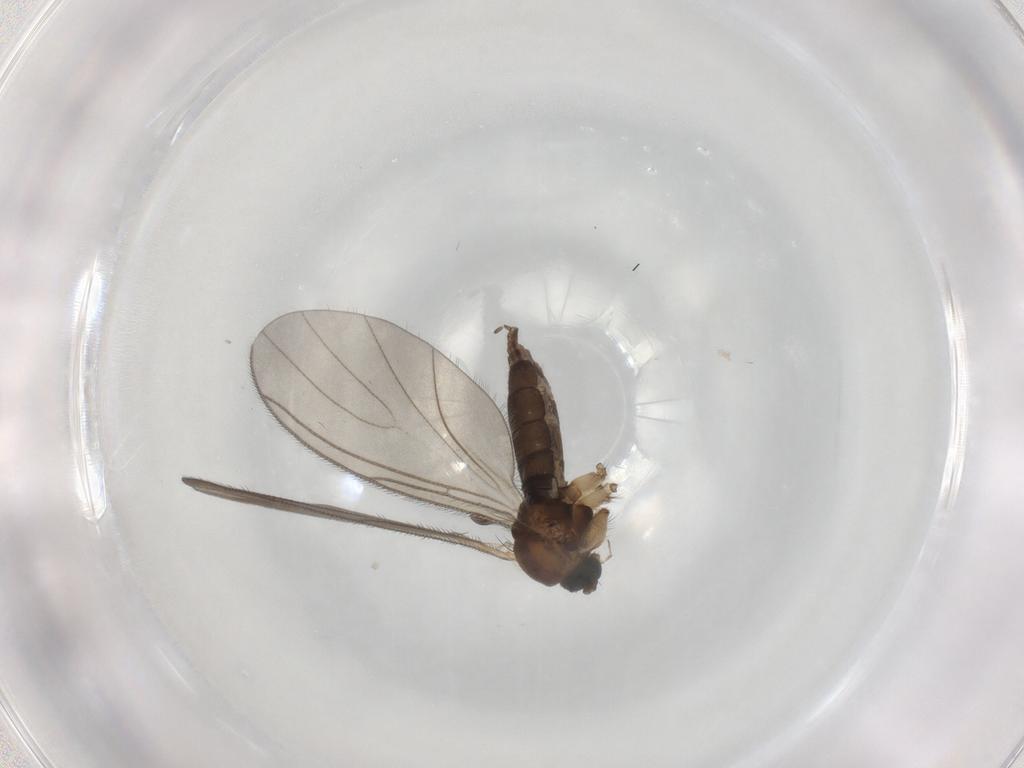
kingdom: Animalia
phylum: Arthropoda
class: Insecta
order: Diptera
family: Sciaridae
